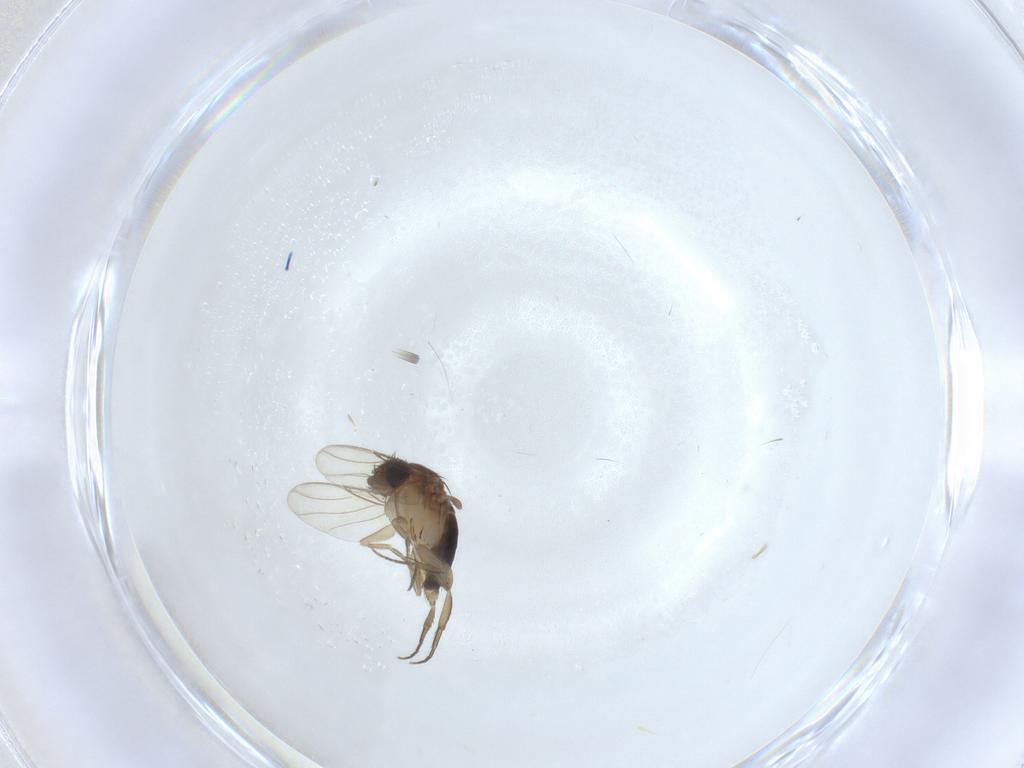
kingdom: Animalia
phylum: Arthropoda
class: Insecta
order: Diptera
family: Phoridae
